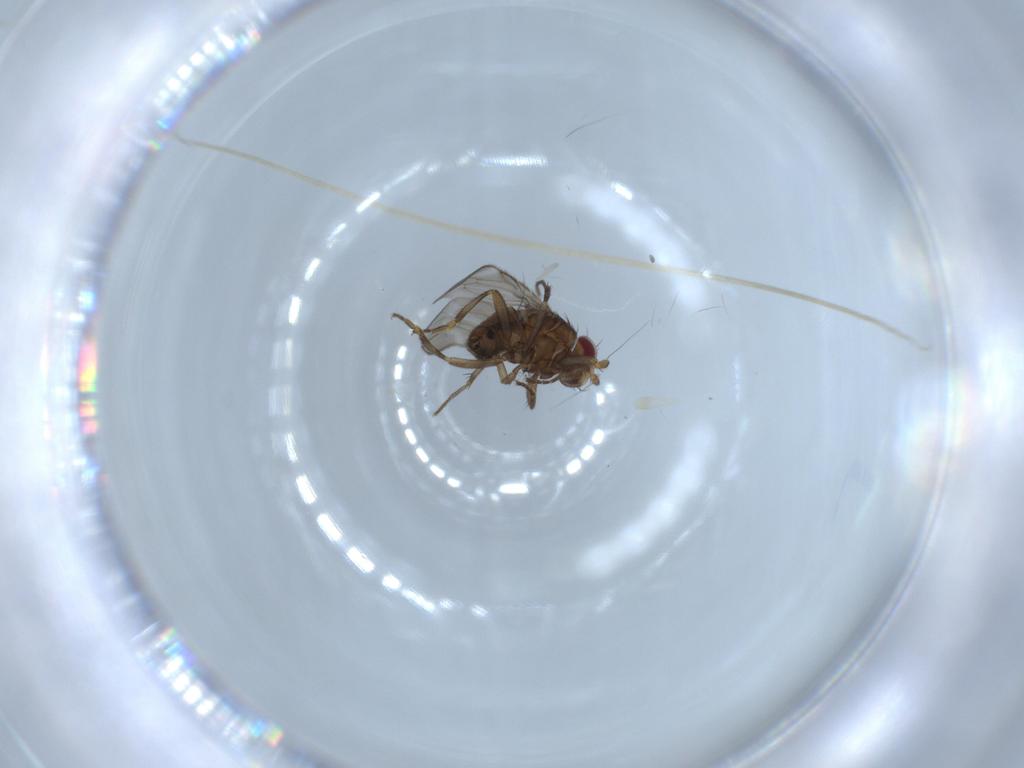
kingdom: Animalia
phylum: Arthropoda
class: Insecta
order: Diptera
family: Sphaeroceridae
